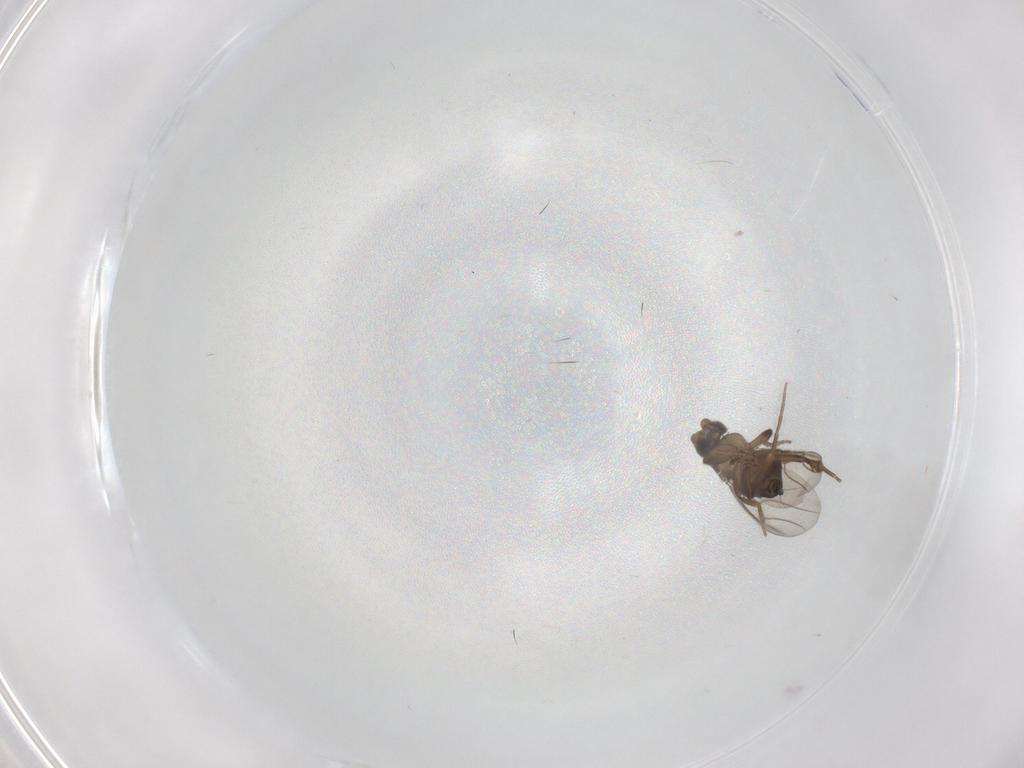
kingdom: Animalia
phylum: Arthropoda
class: Insecta
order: Diptera
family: Phoridae
